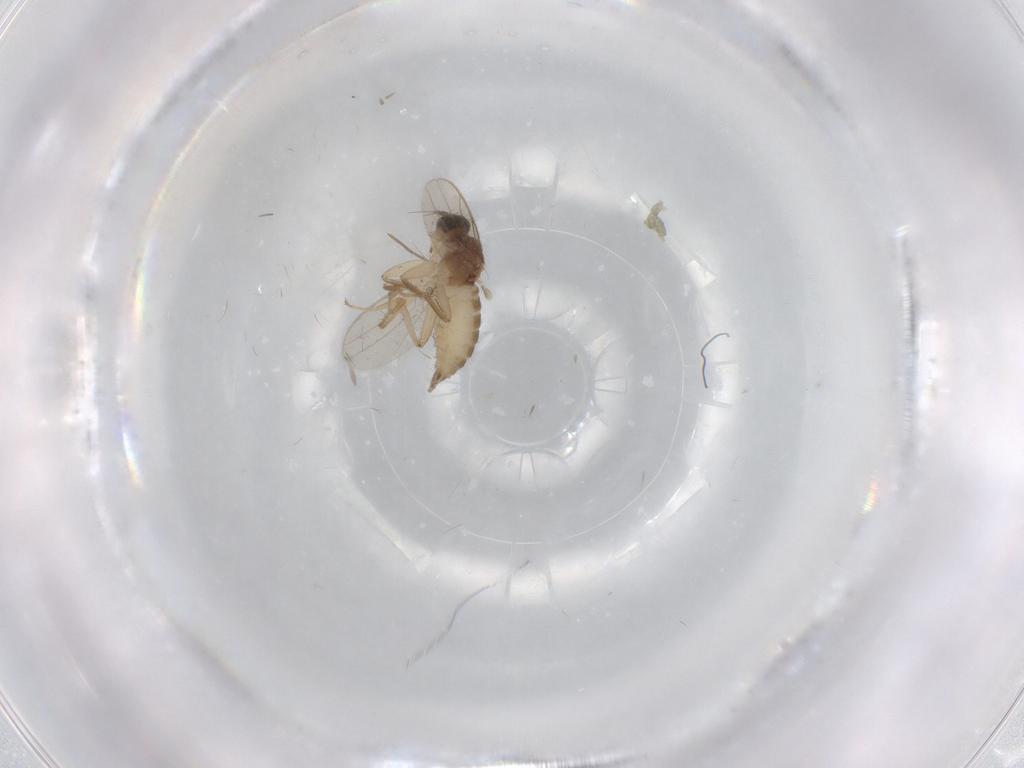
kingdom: Animalia
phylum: Arthropoda
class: Insecta
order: Diptera
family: Hybotidae
